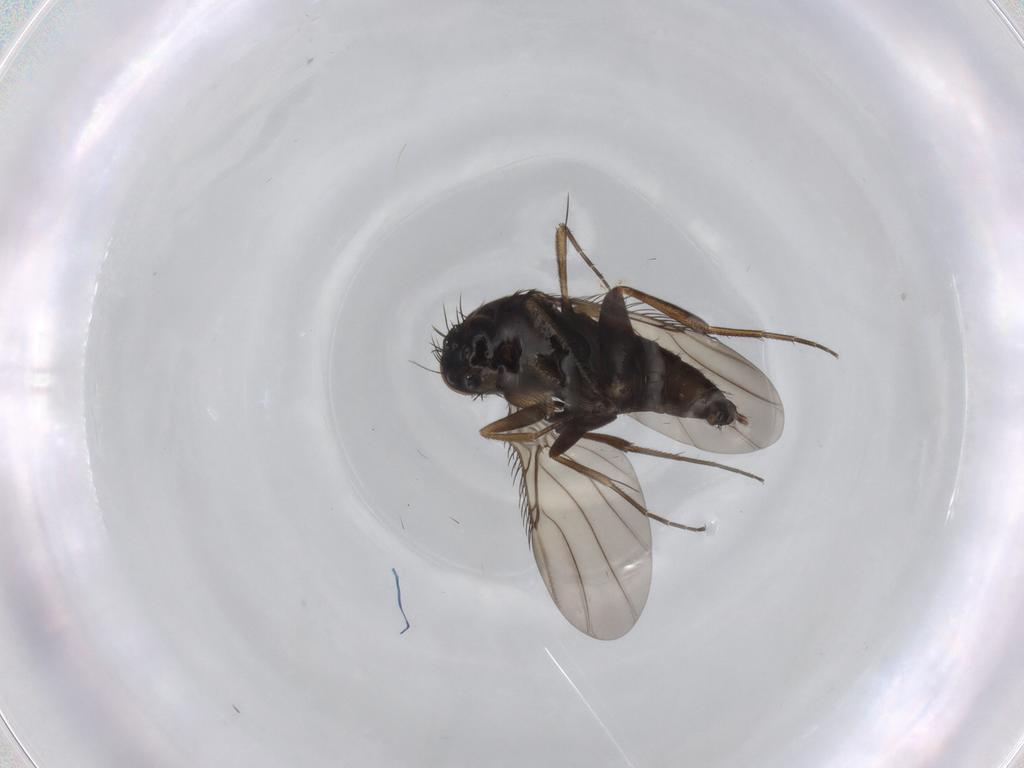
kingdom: Animalia
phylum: Arthropoda
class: Insecta
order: Diptera
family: Phoridae
